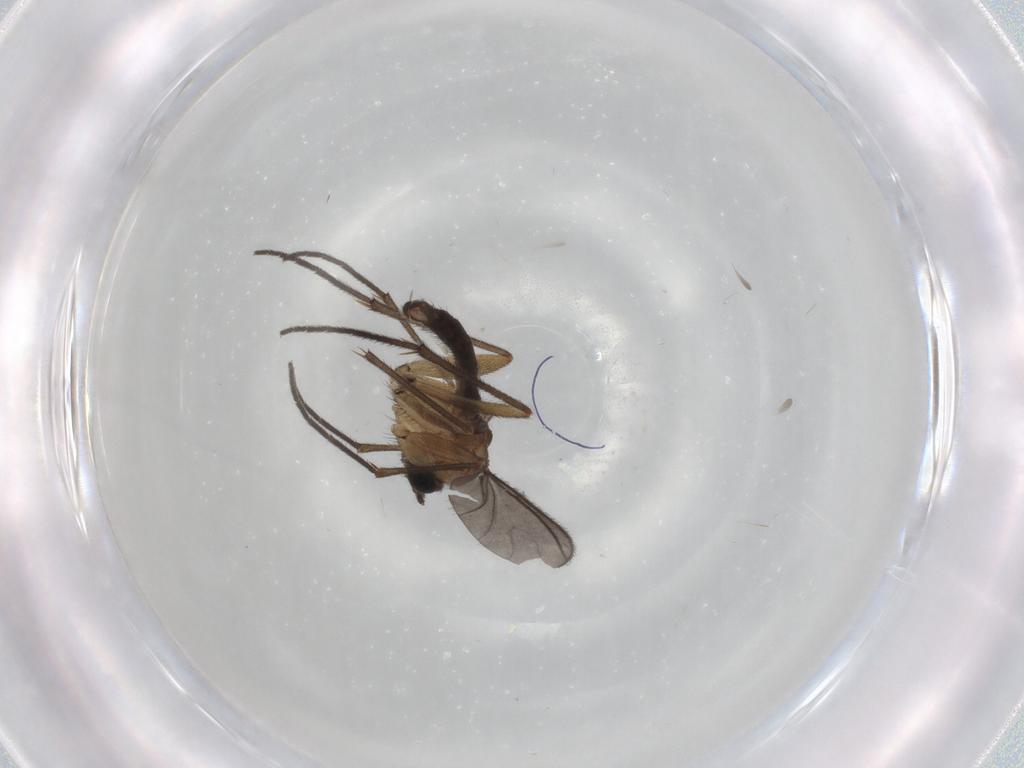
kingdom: Animalia
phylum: Arthropoda
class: Insecta
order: Diptera
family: Sciaridae
